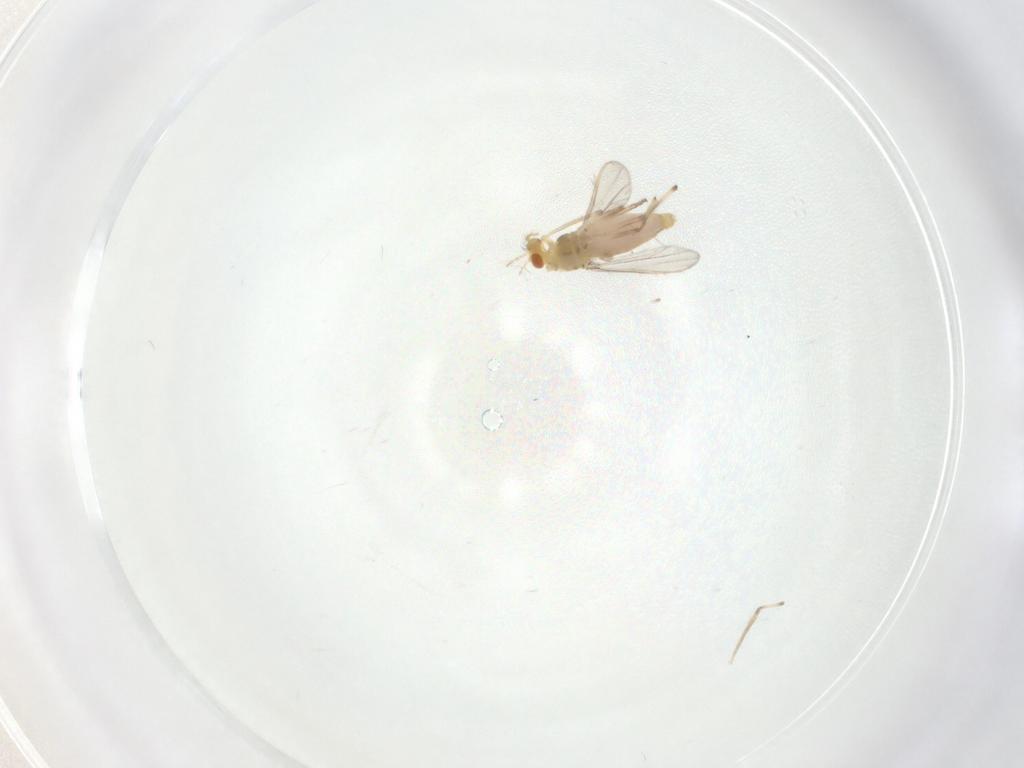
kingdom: Animalia
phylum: Arthropoda
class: Insecta
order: Diptera
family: Chironomidae
